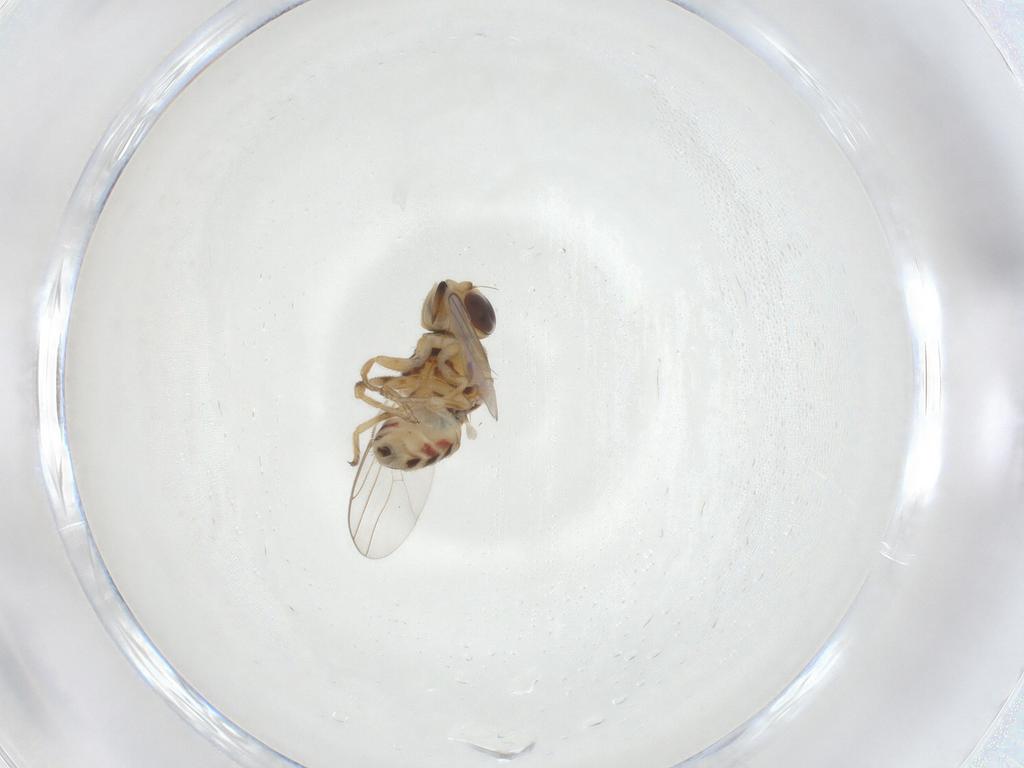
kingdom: Animalia
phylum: Arthropoda
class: Insecta
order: Diptera
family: Chloropidae
